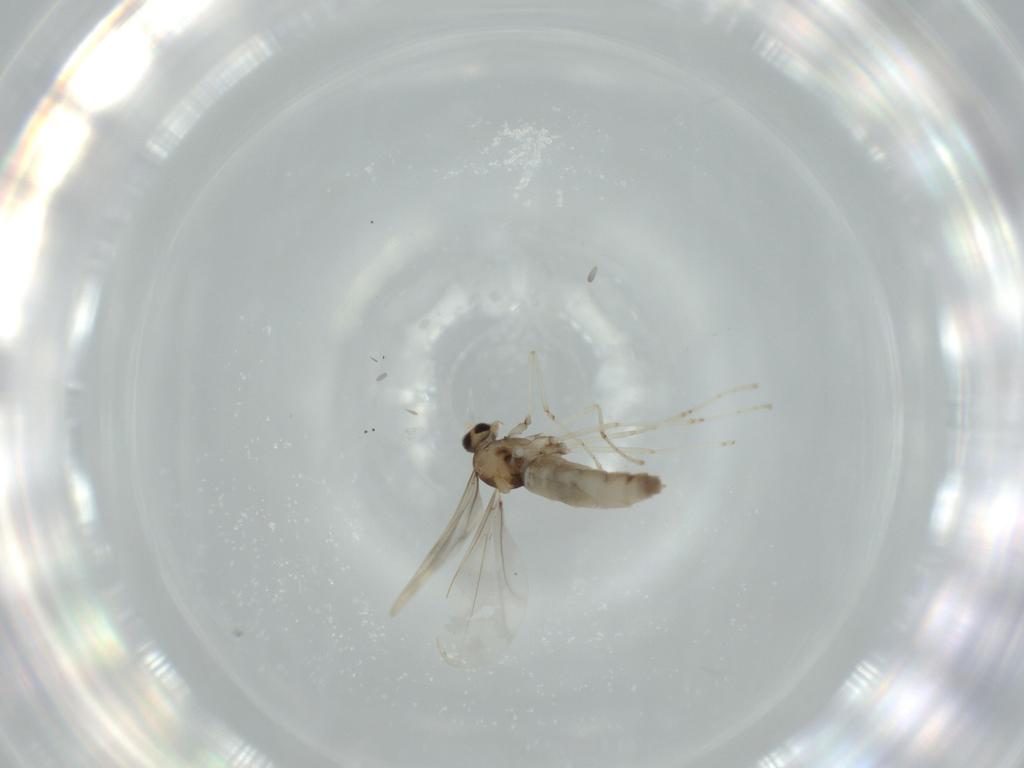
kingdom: Animalia
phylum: Arthropoda
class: Insecta
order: Diptera
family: Cecidomyiidae
